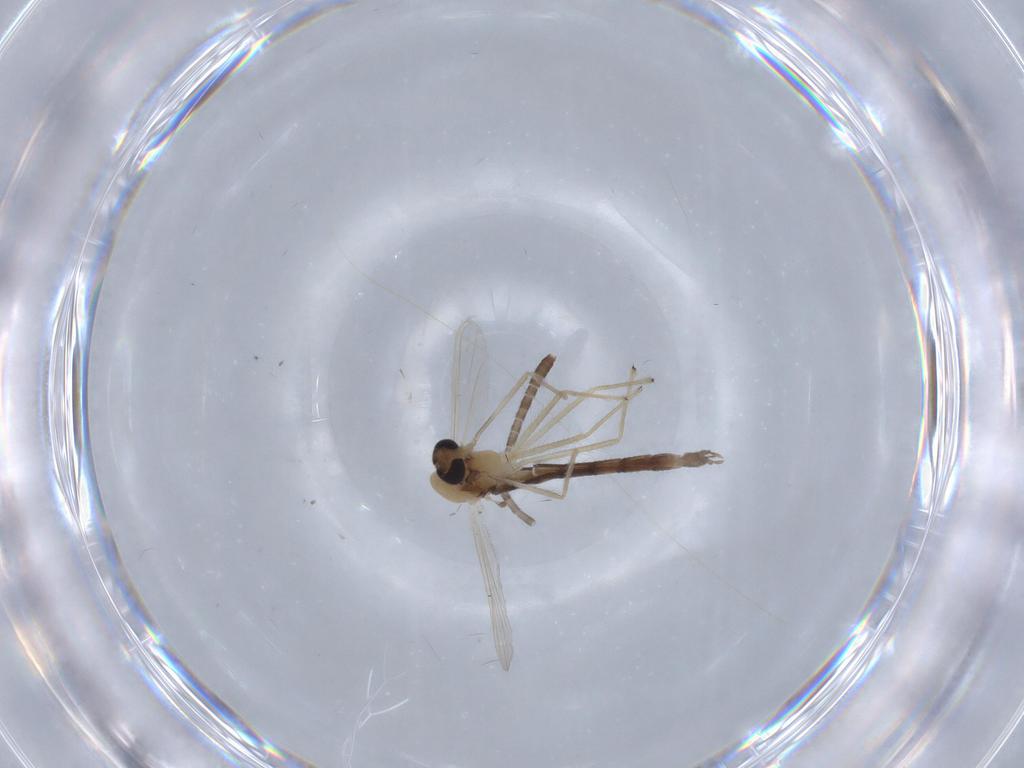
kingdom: Animalia
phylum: Arthropoda
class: Insecta
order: Diptera
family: Chironomidae
